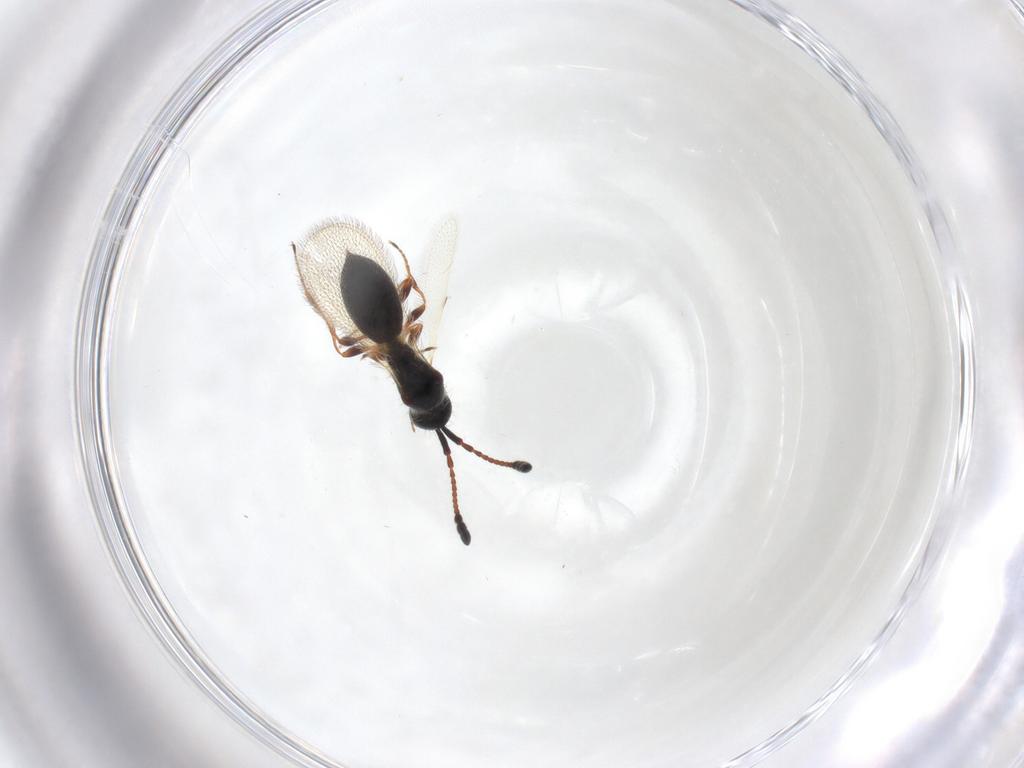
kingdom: Animalia
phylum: Arthropoda
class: Insecta
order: Hymenoptera
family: Diapriidae
